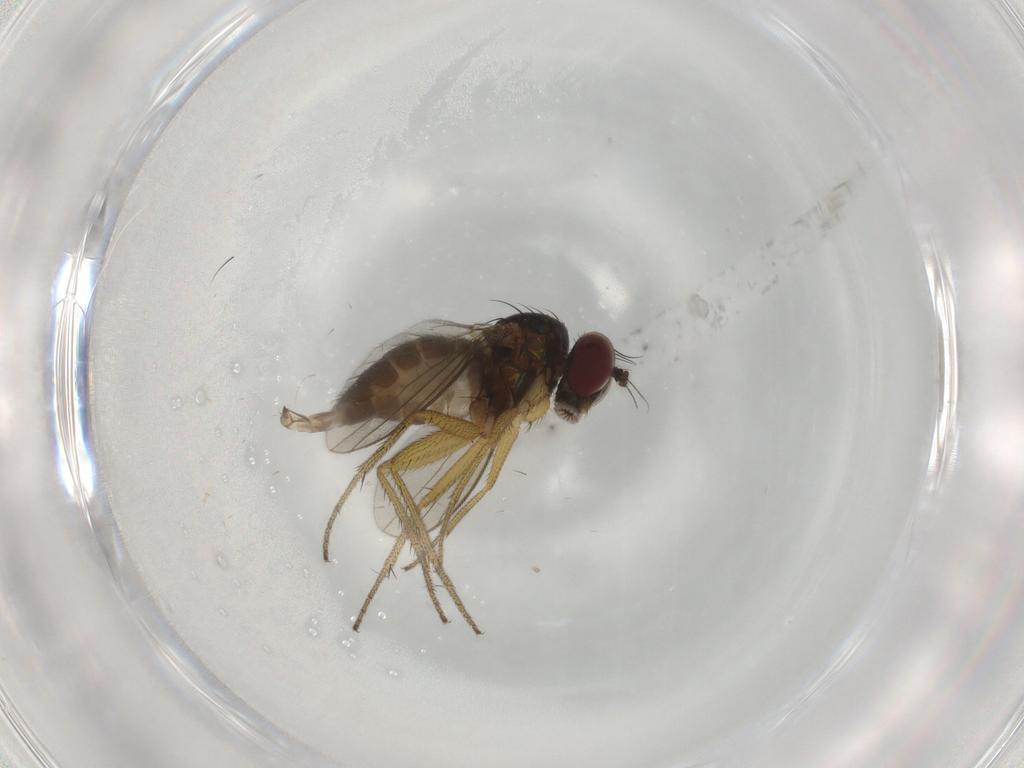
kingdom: Animalia
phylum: Arthropoda
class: Insecta
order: Diptera
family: Dolichopodidae
